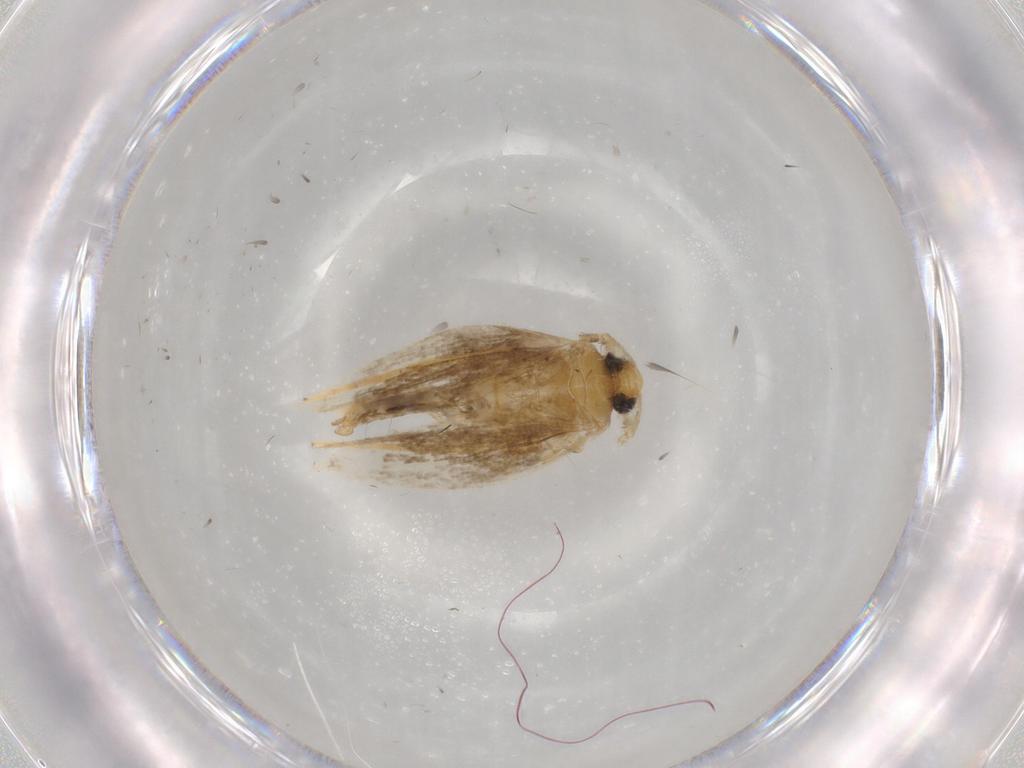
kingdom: Animalia
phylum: Arthropoda
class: Insecta
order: Lepidoptera
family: Opostegidae
